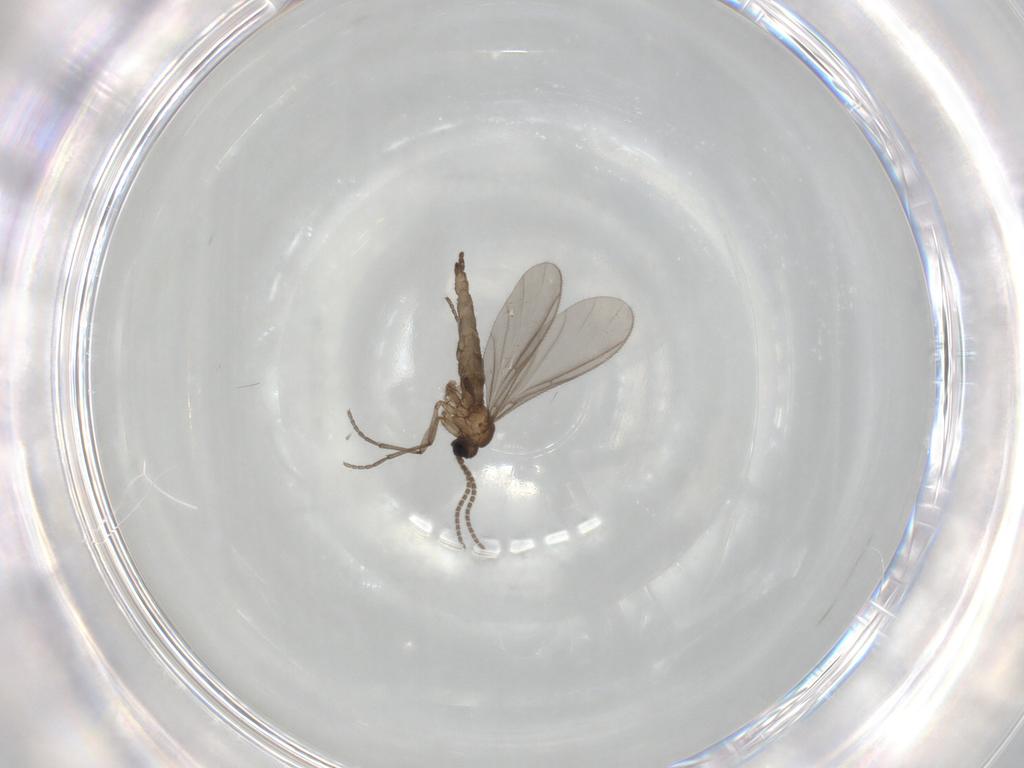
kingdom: Animalia
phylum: Arthropoda
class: Insecta
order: Diptera
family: Sciaridae
